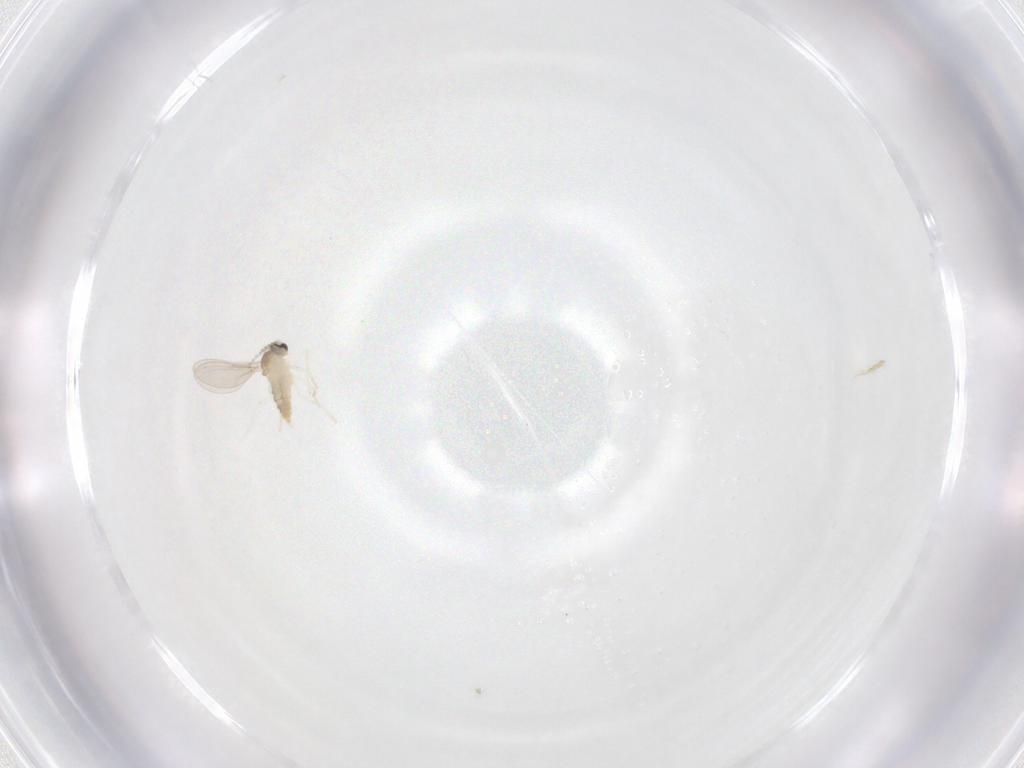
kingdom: Animalia
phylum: Arthropoda
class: Insecta
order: Diptera
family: Cecidomyiidae
